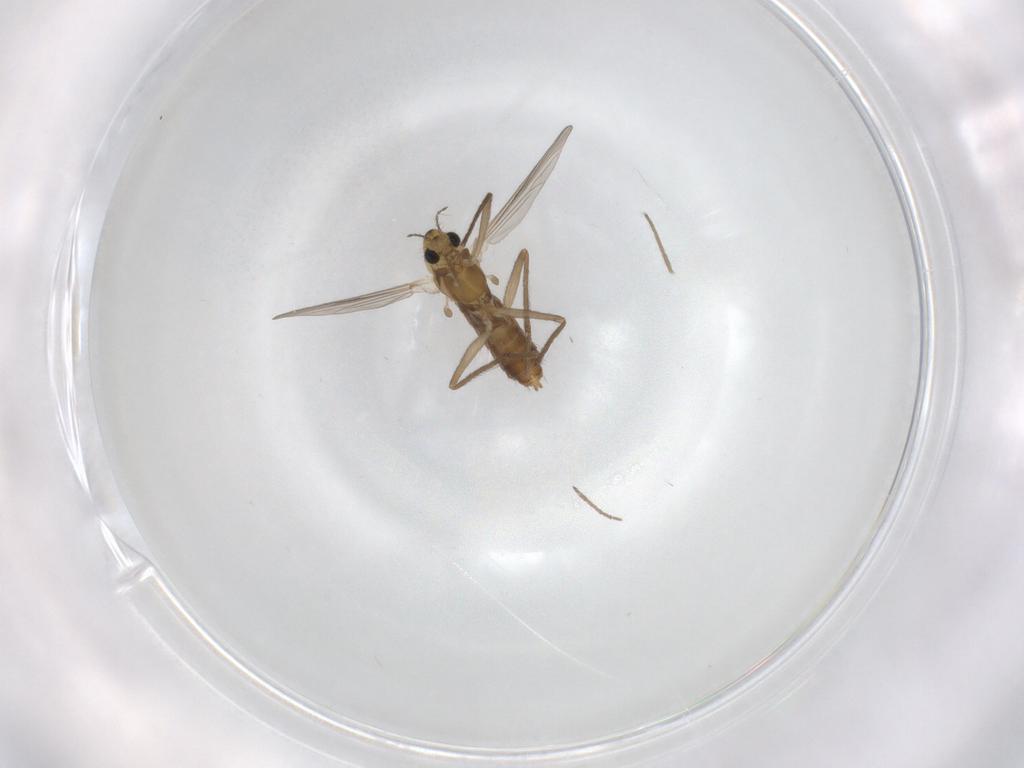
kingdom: Animalia
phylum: Arthropoda
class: Insecta
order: Diptera
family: Chironomidae
